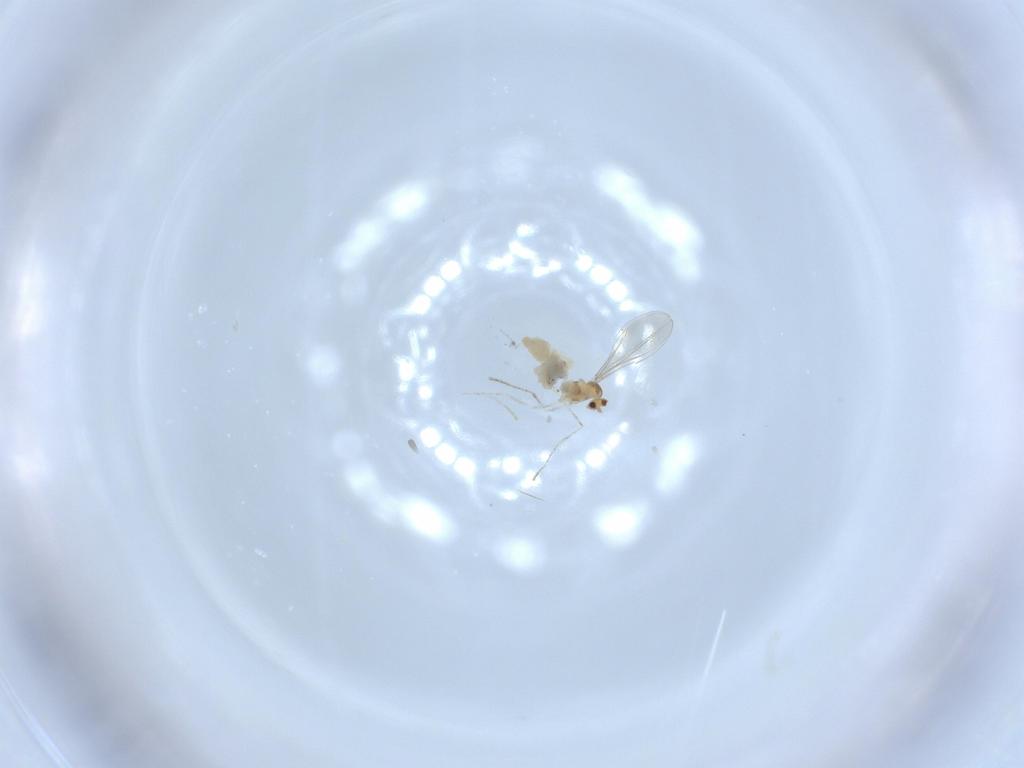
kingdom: Animalia
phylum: Arthropoda
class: Insecta
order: Diptera
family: Cecidomyiidae
